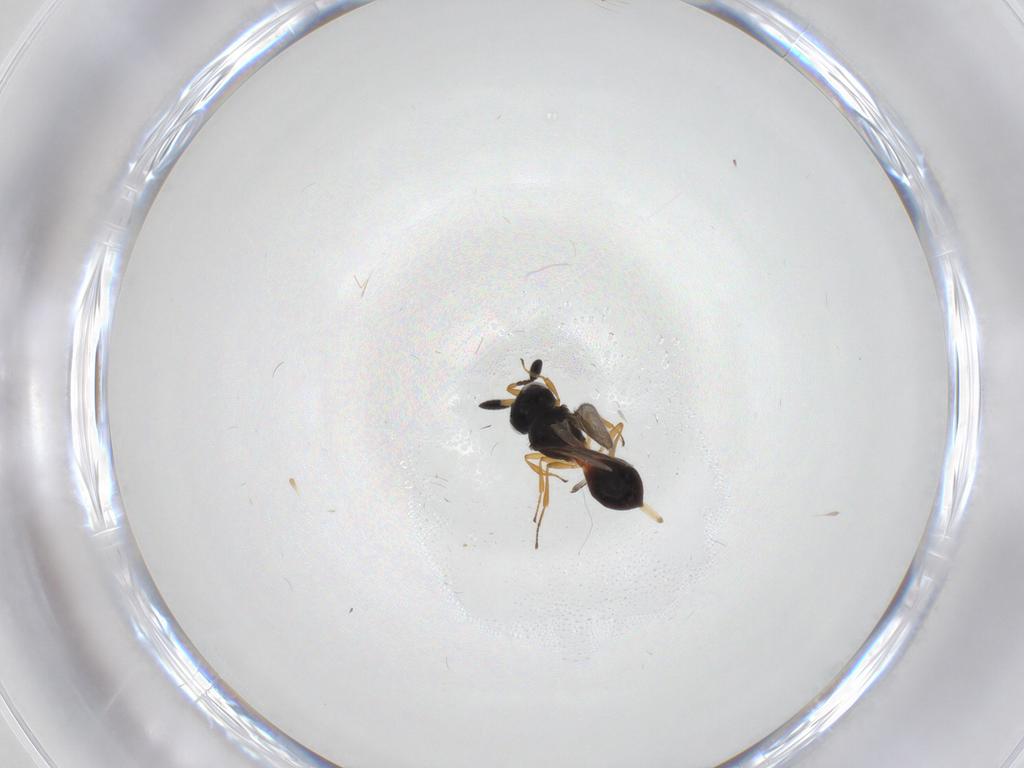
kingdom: Animalia
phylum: Arthropoda
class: Insecta
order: Hymenoptera
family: Scelionidae
